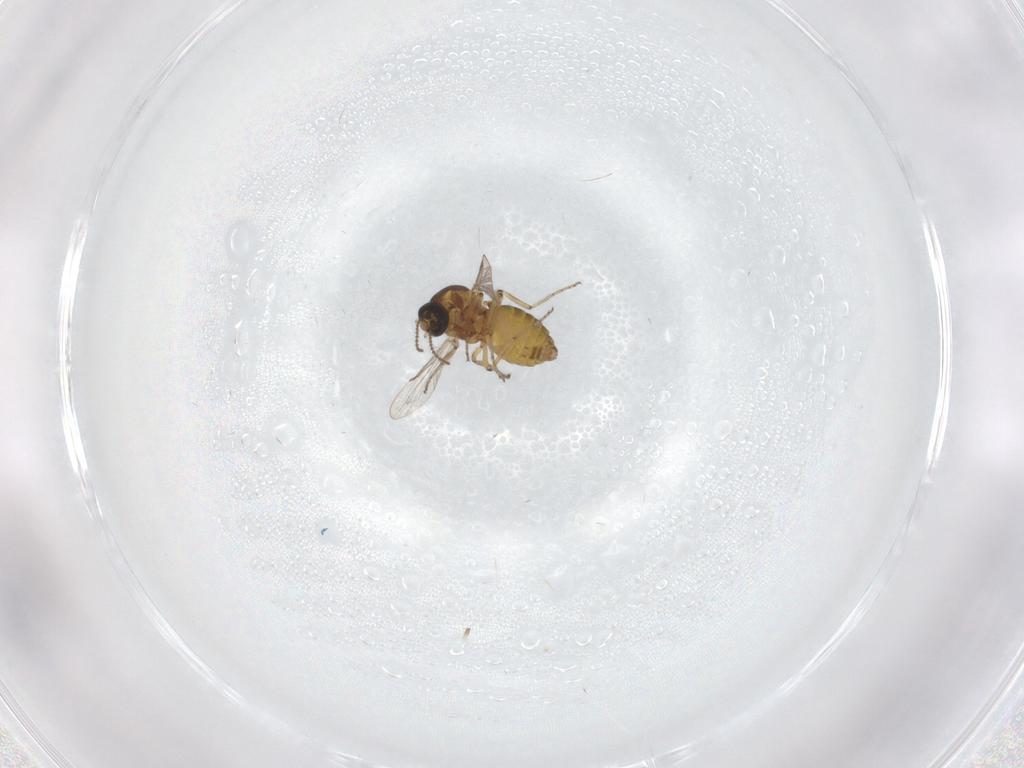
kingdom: Animalia
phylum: Arthropoda
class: Insecta
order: Diptera
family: Ceratopogonidae
